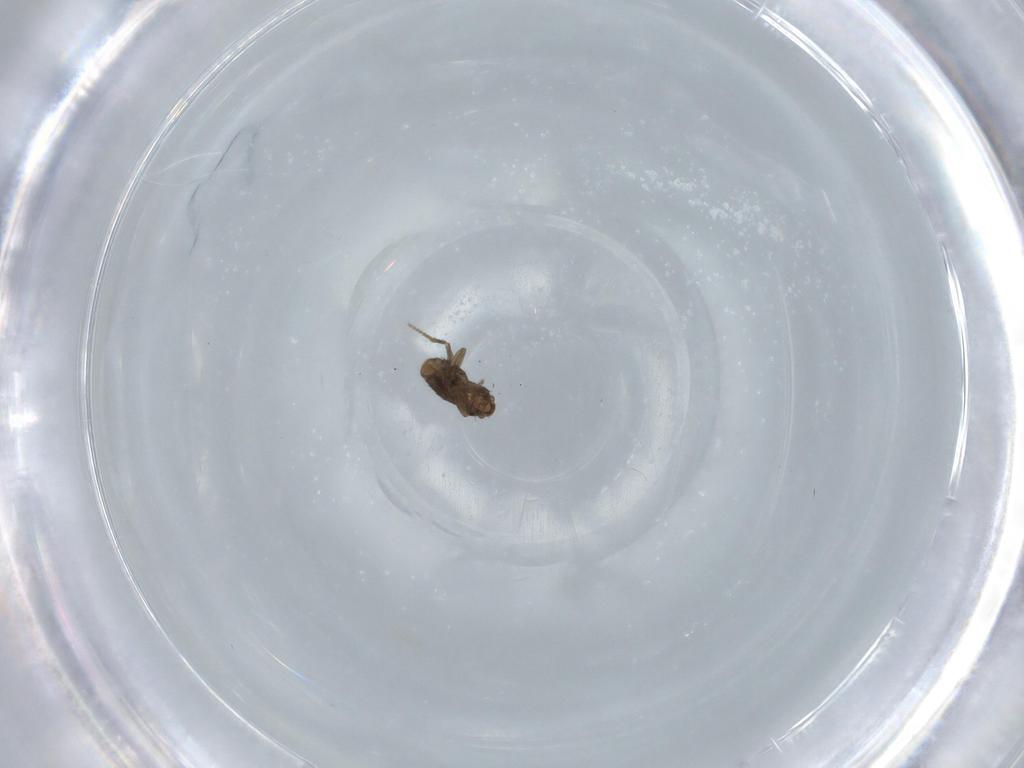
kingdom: Animalia
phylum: Arthropoda
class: Insecta
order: Diptera
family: Phoridae
